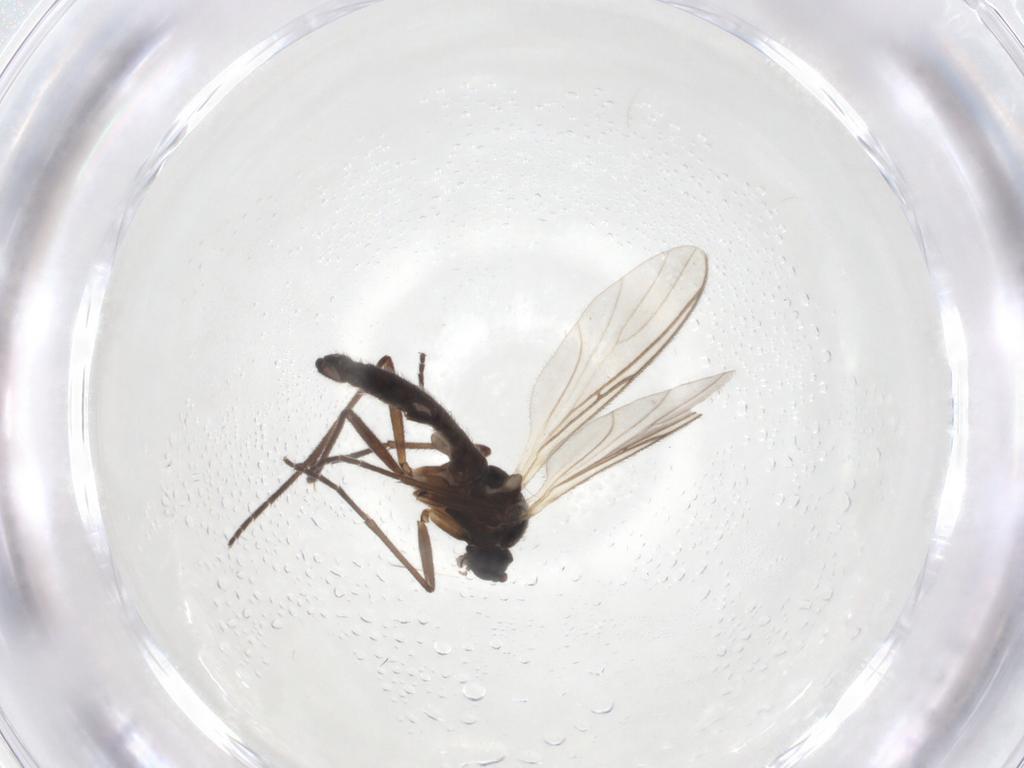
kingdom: Animalia
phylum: Arthropoda
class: Insecta
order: Diptera
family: Sciaridae
